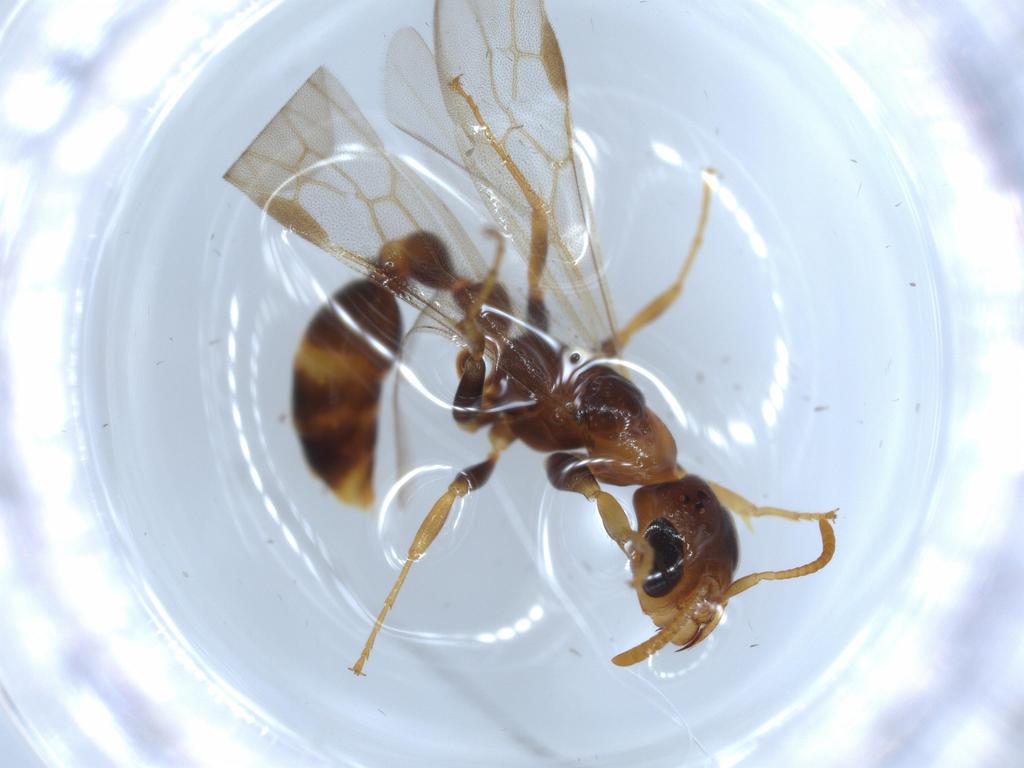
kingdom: Animalia
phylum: Arthropoda
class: Insecta
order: Hymenoptera
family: Formicidae
